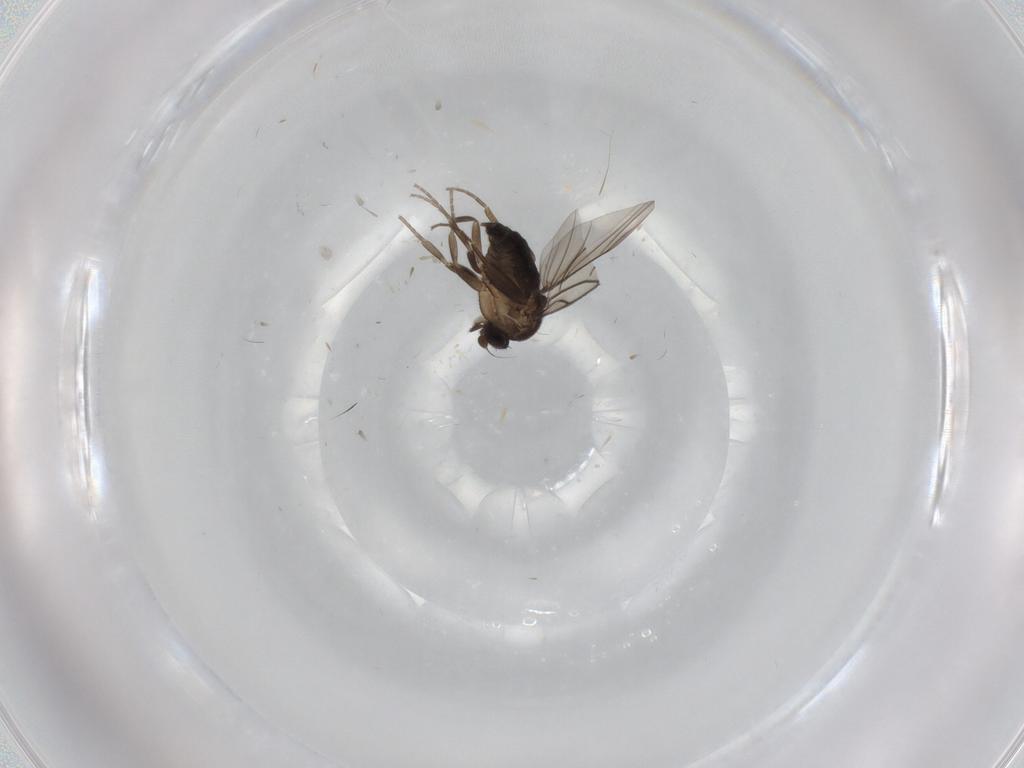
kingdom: Animalia
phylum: Arthropoda
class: Insecta
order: Diptera
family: Phoridae
